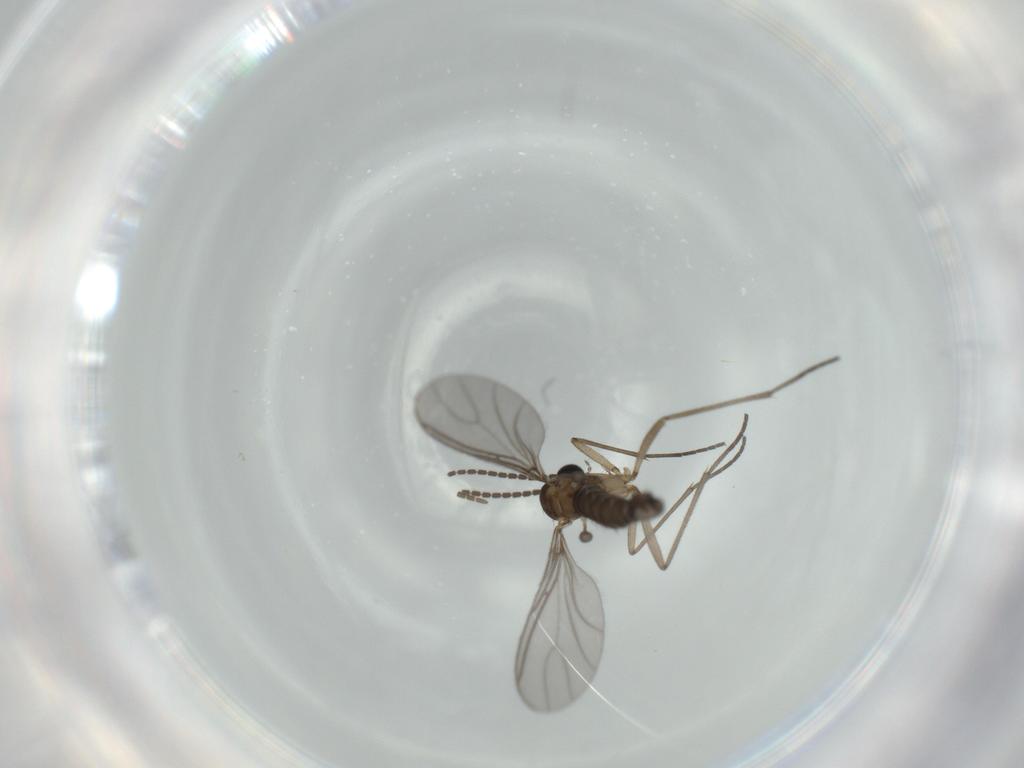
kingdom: Animalia
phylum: Arthropoda
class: Insecta
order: Diptera
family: Sciaridae
